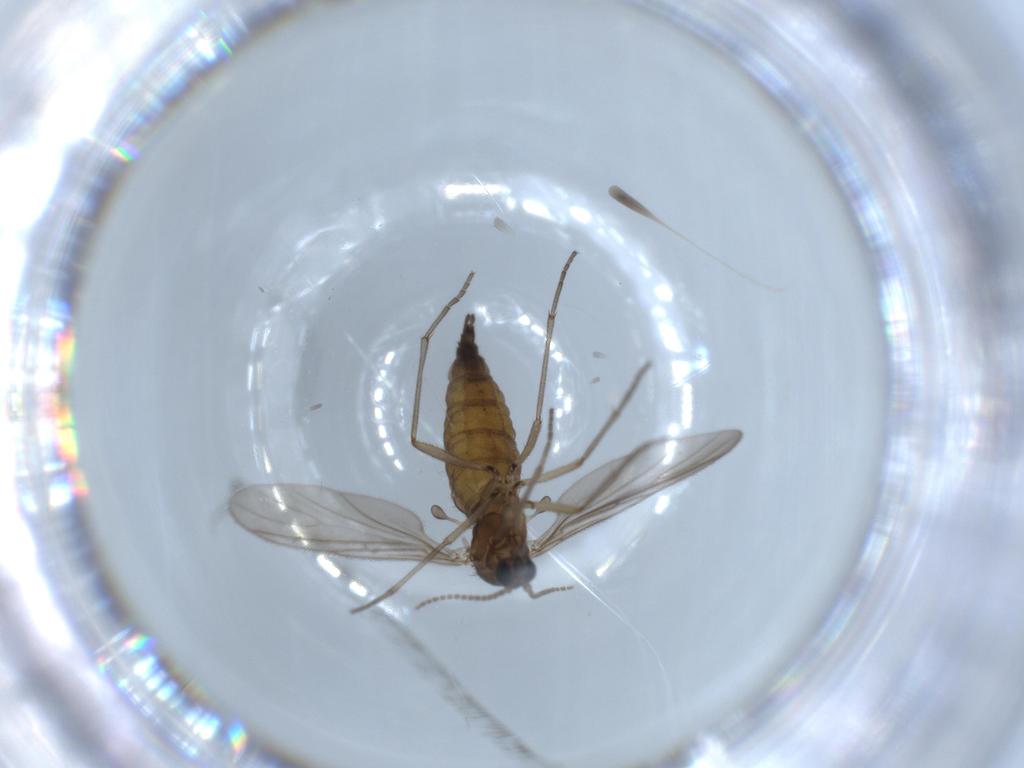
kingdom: Animalia
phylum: Arthropoda
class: Insecta
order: Diptera
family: Sciaridae
